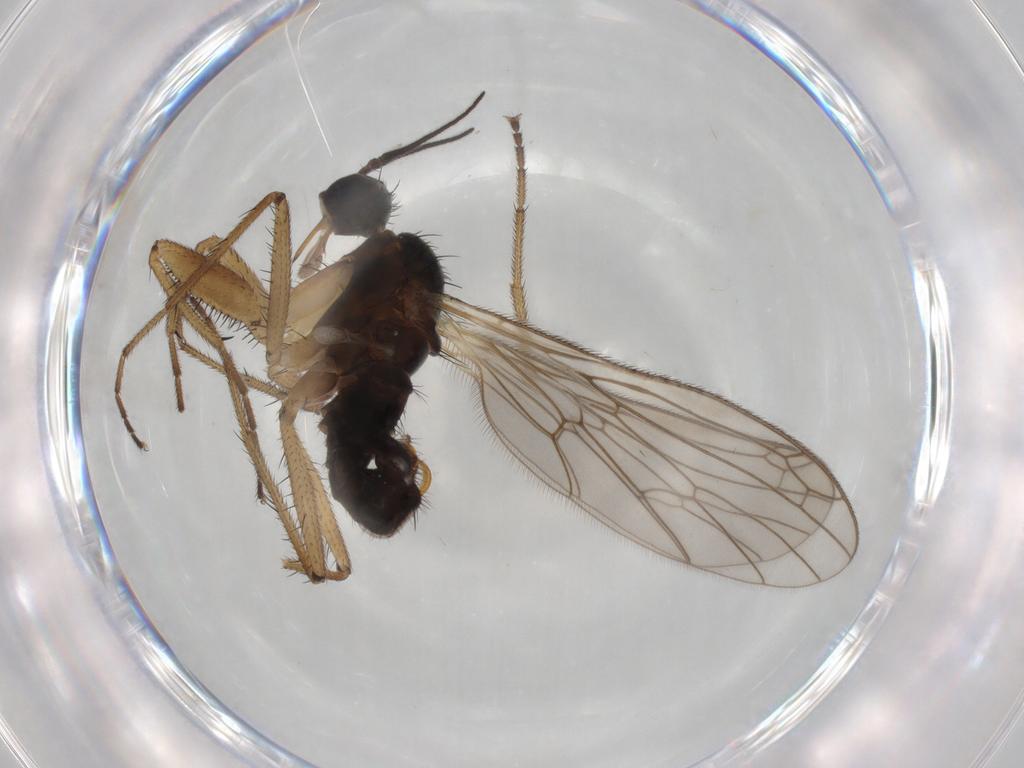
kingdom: Animalia
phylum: Arthropoda
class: Insecta
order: Diptera
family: Empididae
